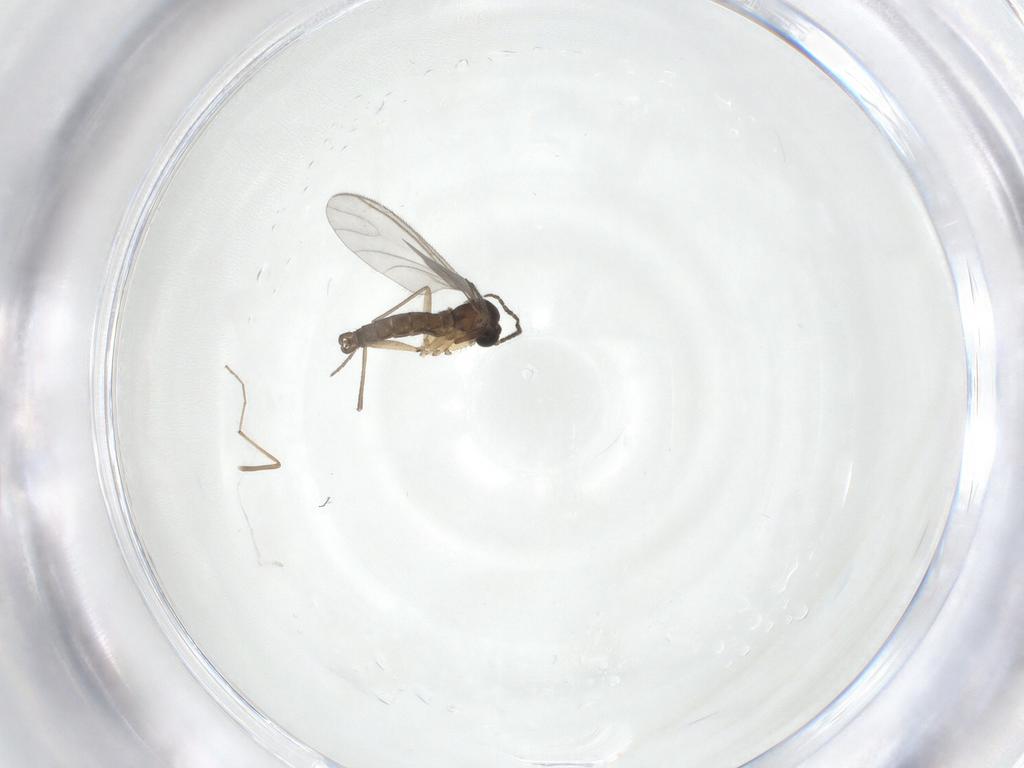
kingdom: Animalia
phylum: Arthropoda
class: Insecta
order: Diptera
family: Sciaridae
